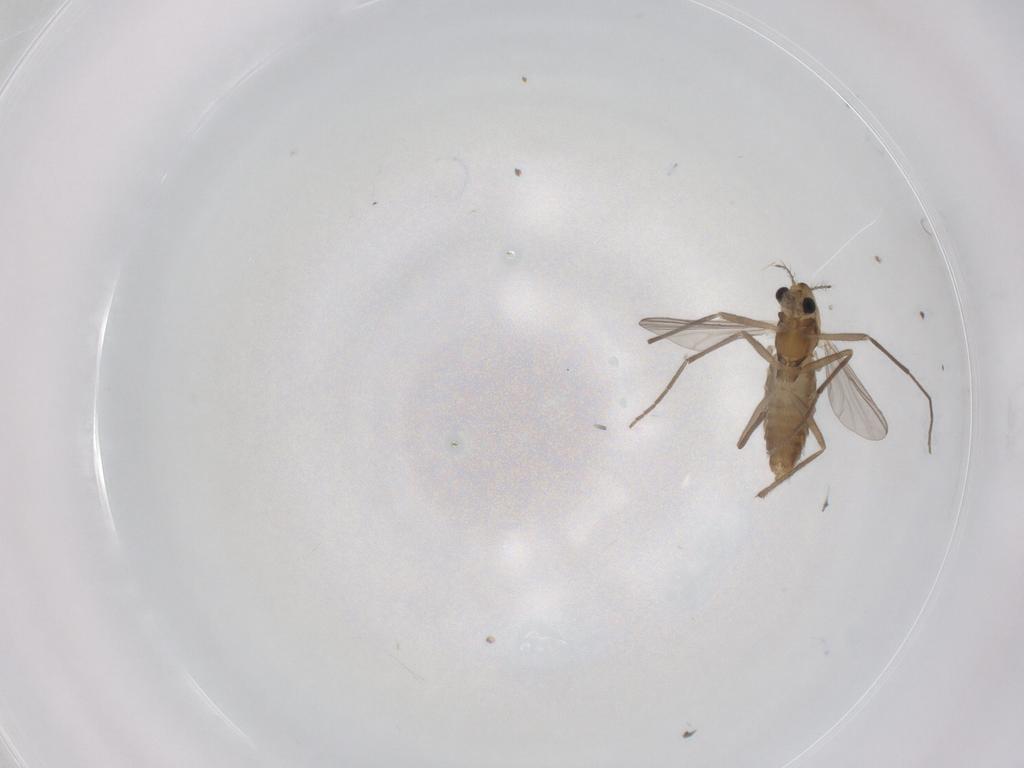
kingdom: Animalia
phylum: Arthropoda
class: Insecta
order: Diptera
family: Chironomidae
